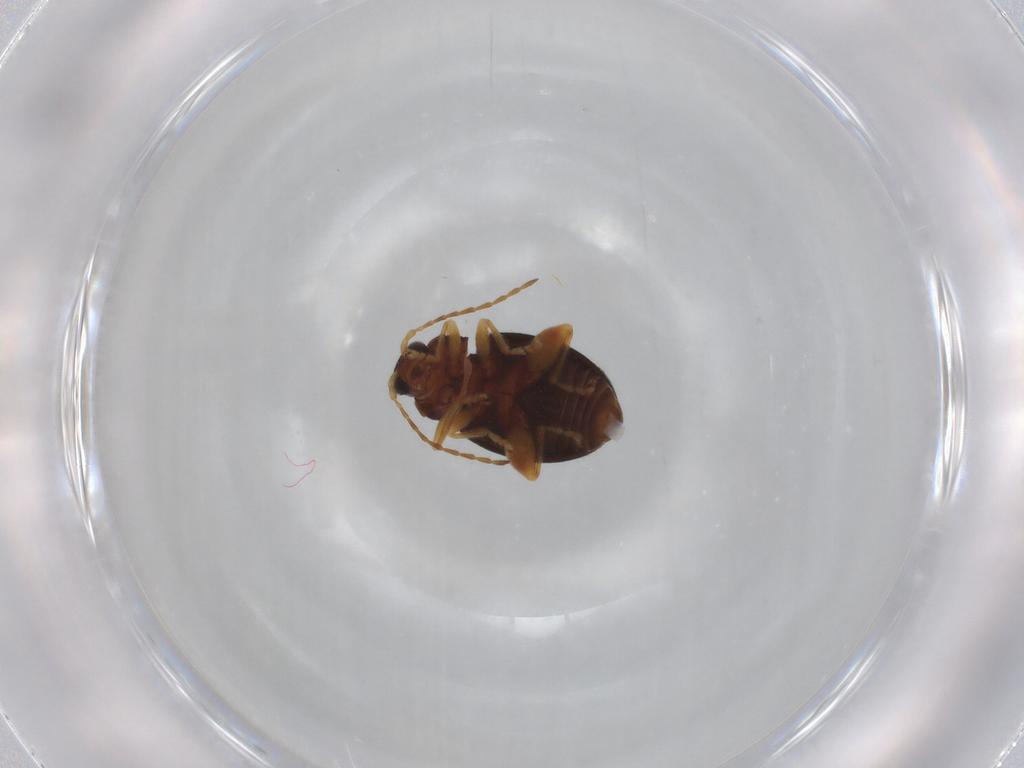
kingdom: Animalia
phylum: Arthropoda
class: Insecta
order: Coleoptera
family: Chrysomelidae
